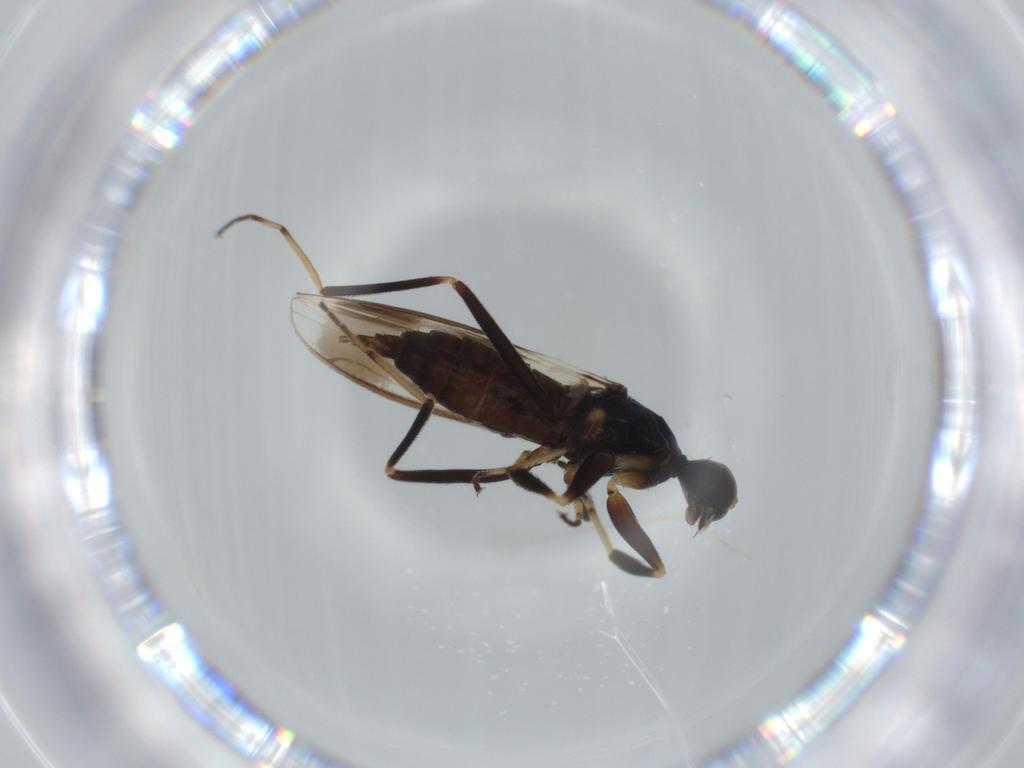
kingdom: Animalia
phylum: Arthropoda
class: Insecta
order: Diptera
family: Hybotidae
